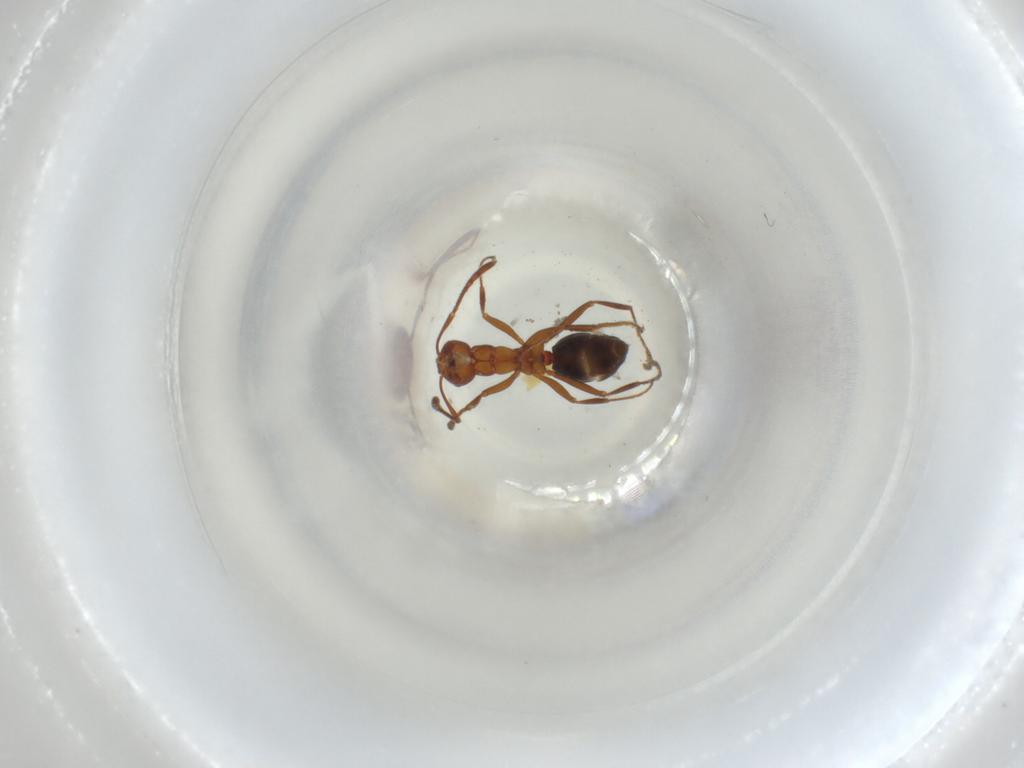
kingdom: Animalia
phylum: Arthropoda
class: Insecta
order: Hymenoptera
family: Formicidae
